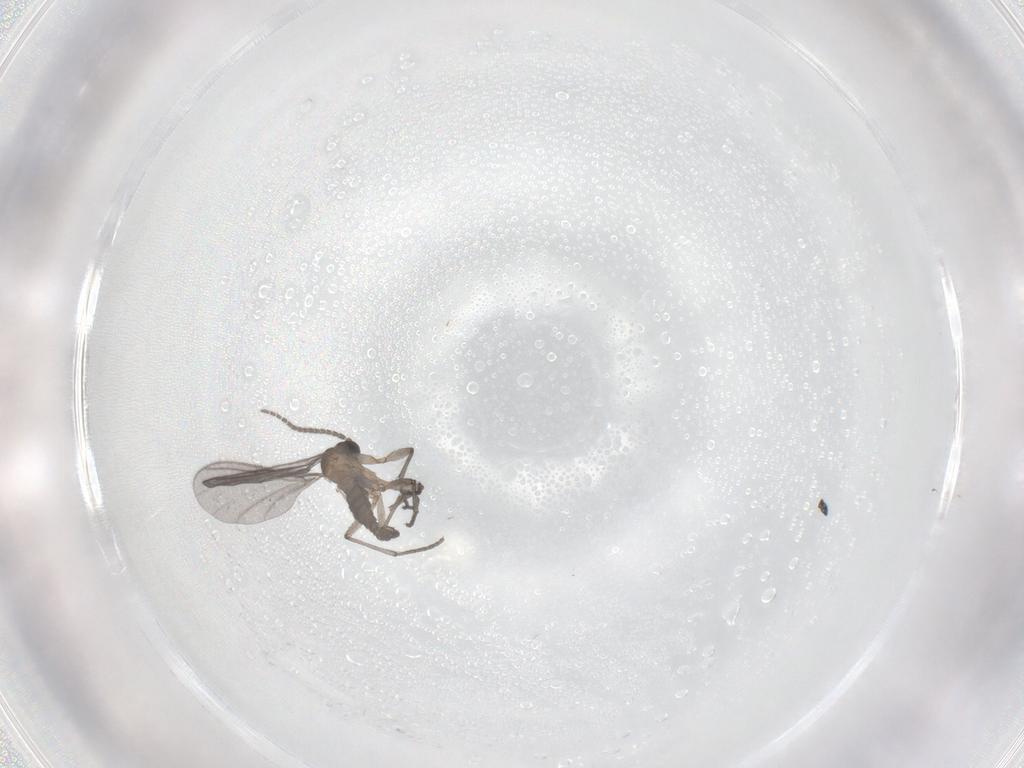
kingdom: Animalia
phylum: Arthropoda
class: Insecta
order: Diptera
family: Sciaridae
